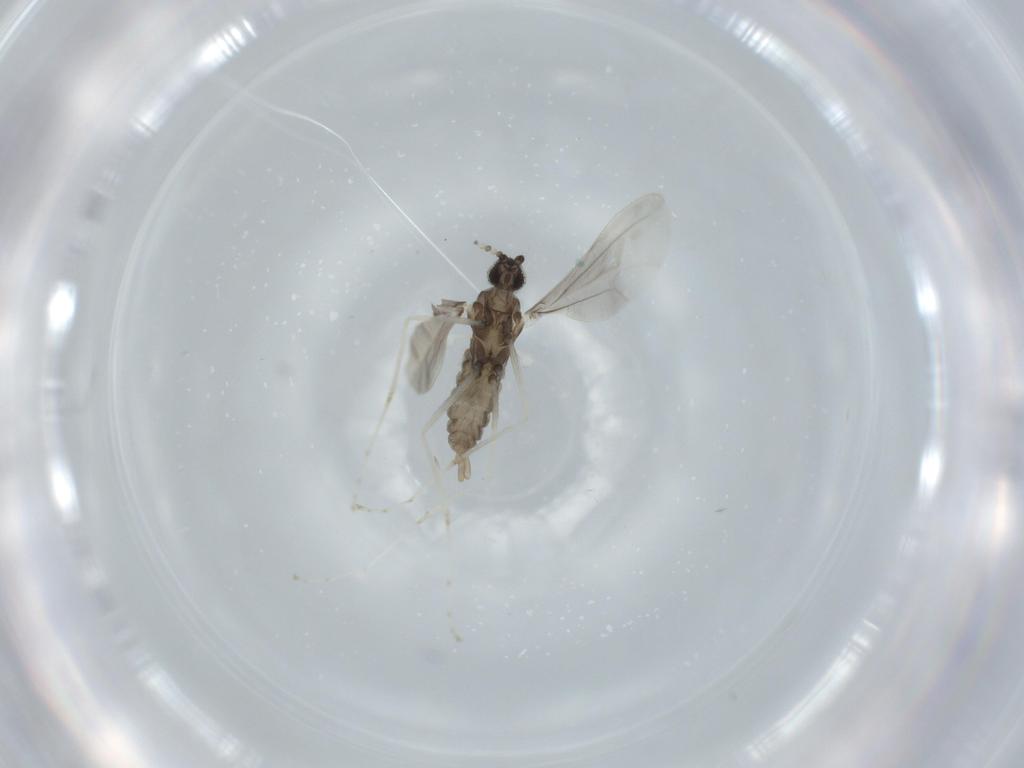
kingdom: Animalia
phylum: Arthropoda
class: Insecta
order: Diptera
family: Cecidomyiidae
